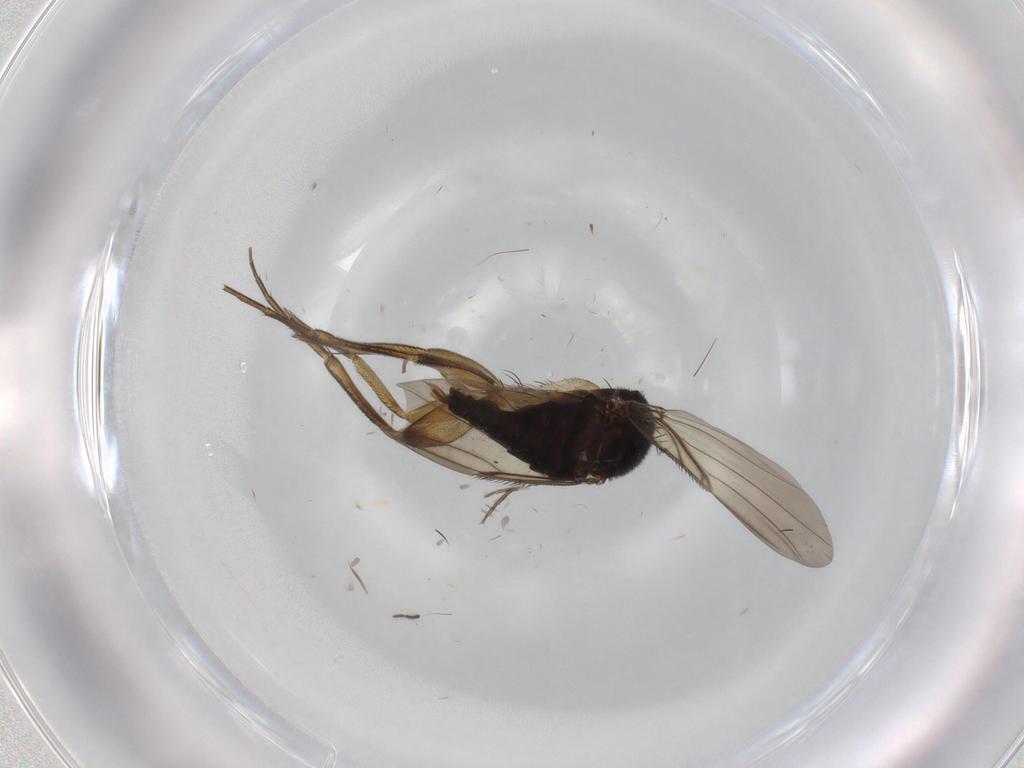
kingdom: Animalia
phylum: Arthropoda
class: Insecta
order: Diptera
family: Phoridae
